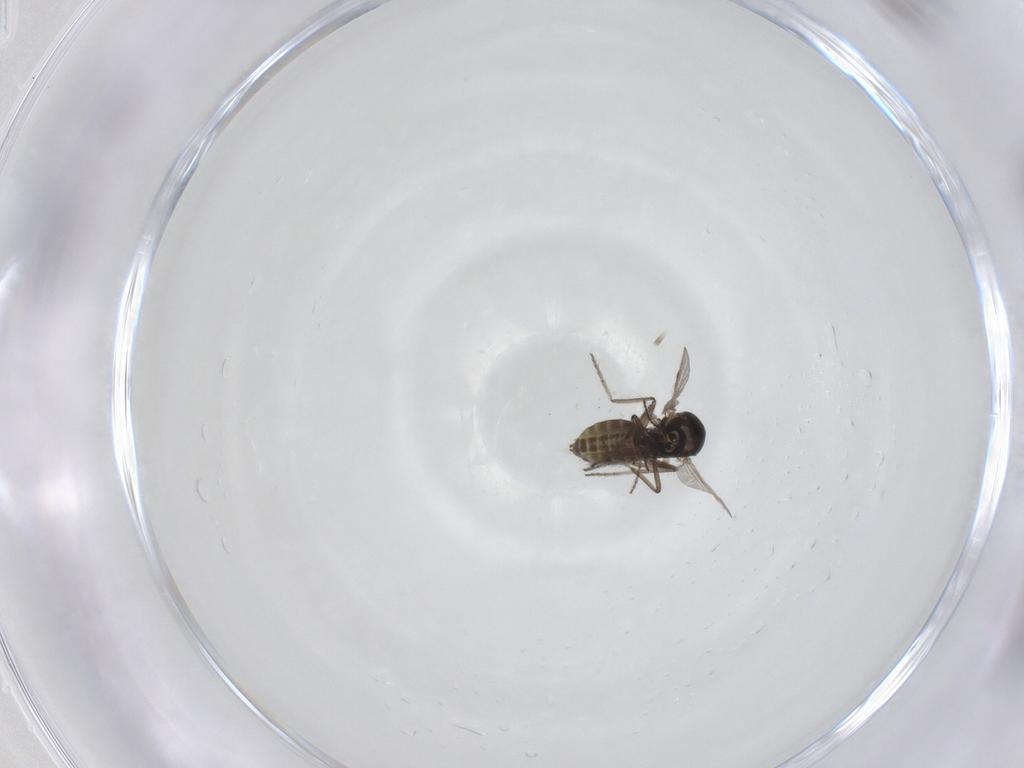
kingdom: Animalia
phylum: Arthropoda
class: Insecta
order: Diptera
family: Ceratopogonidae
